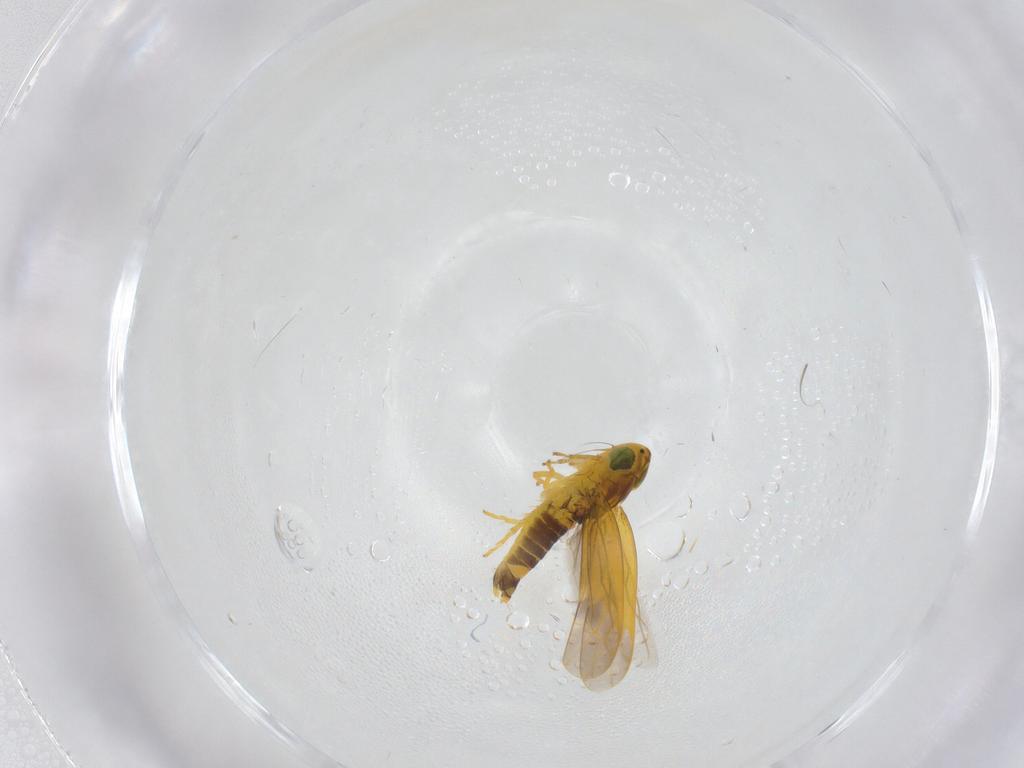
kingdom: Animalia
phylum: Arthropoda
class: Insecta
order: Hemiptera
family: Cicadellidae
